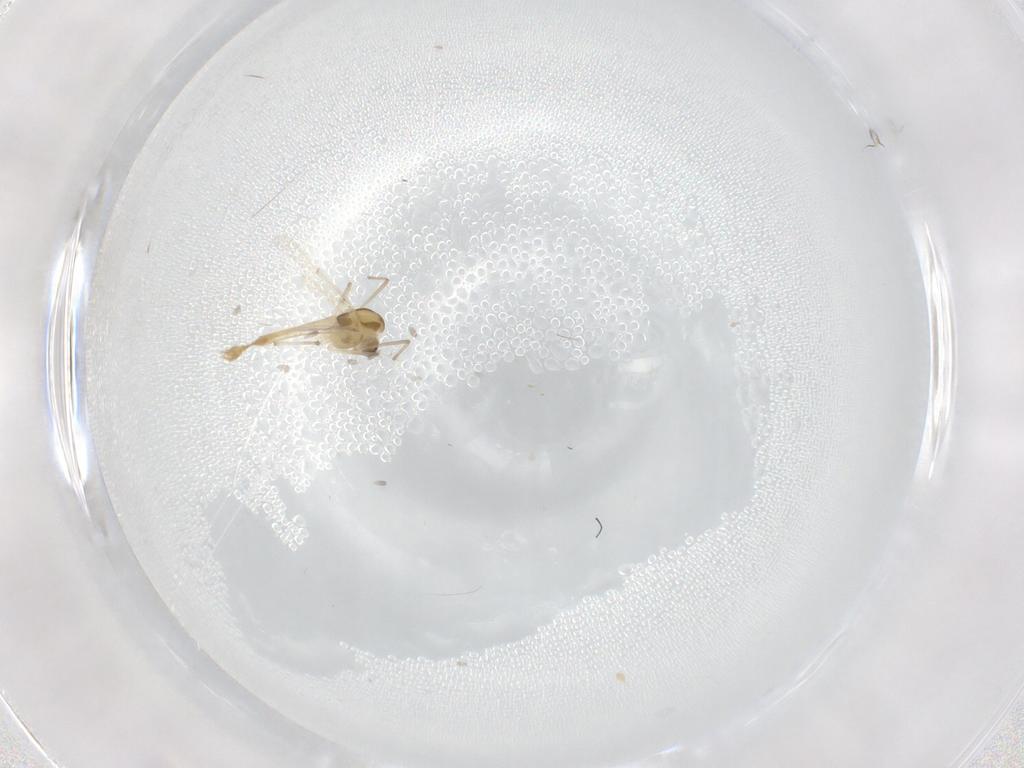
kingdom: Animalia
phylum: Arthropoda
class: Insecta
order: Diptera
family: Chironomidae
